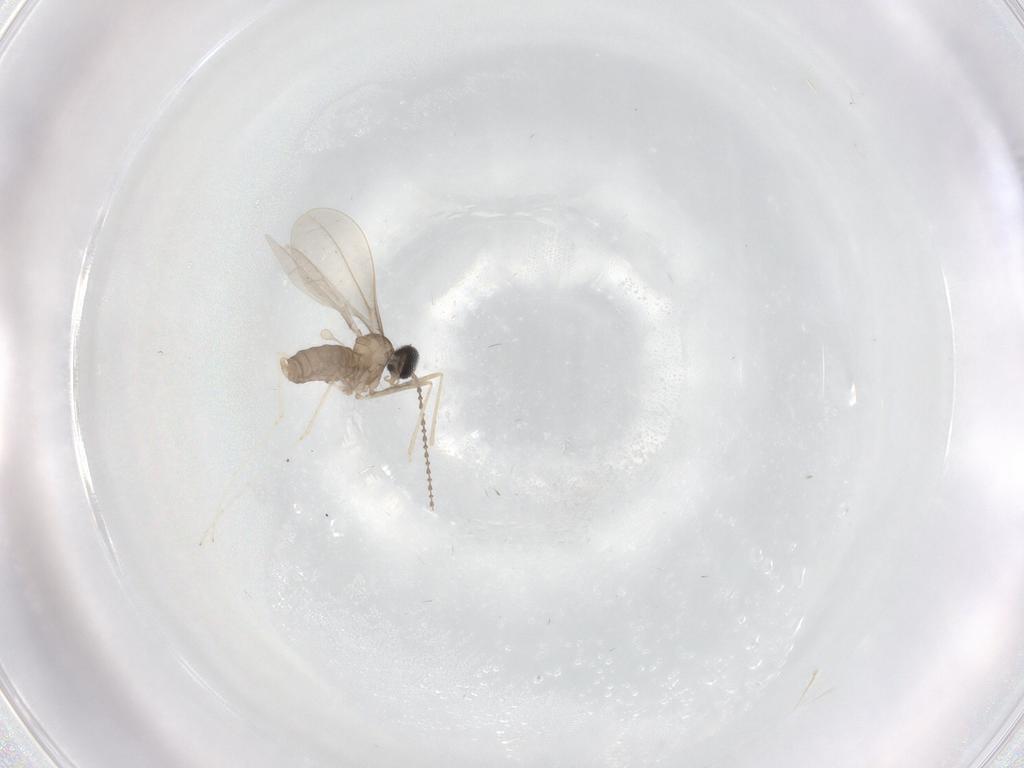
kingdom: Animalia
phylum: Arthropoda
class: Insecta
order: Diptera
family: Cecidomyiidae
